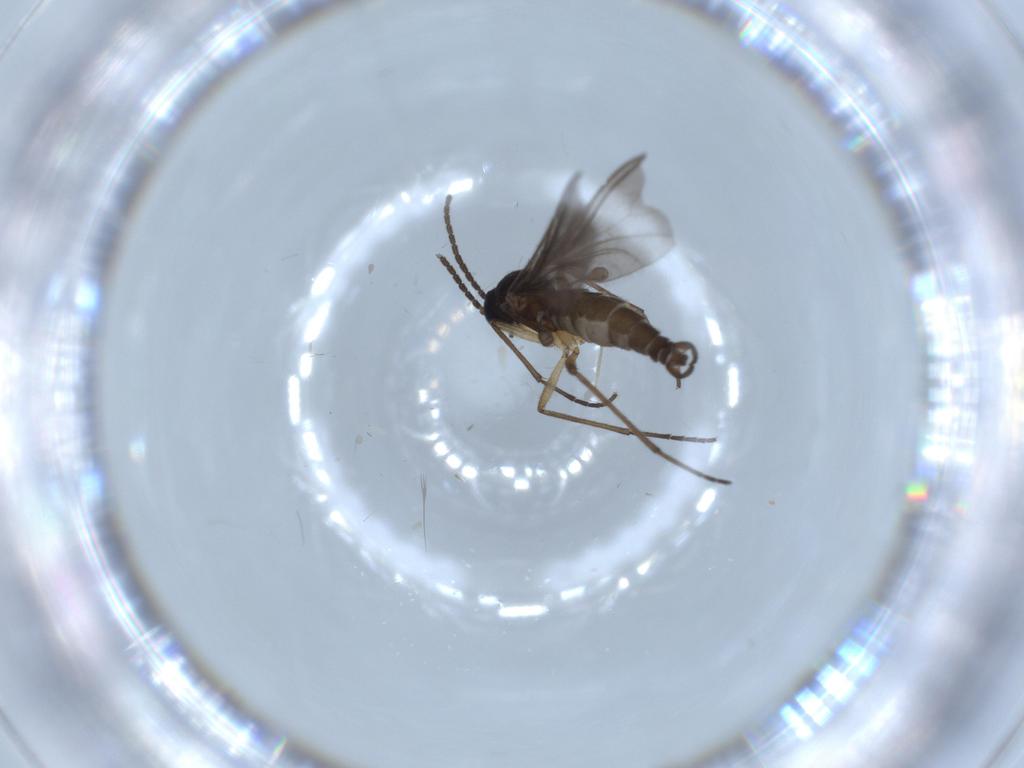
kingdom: Animalia
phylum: Arthropoda
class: Insecta
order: Diptera
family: Sciaridae
